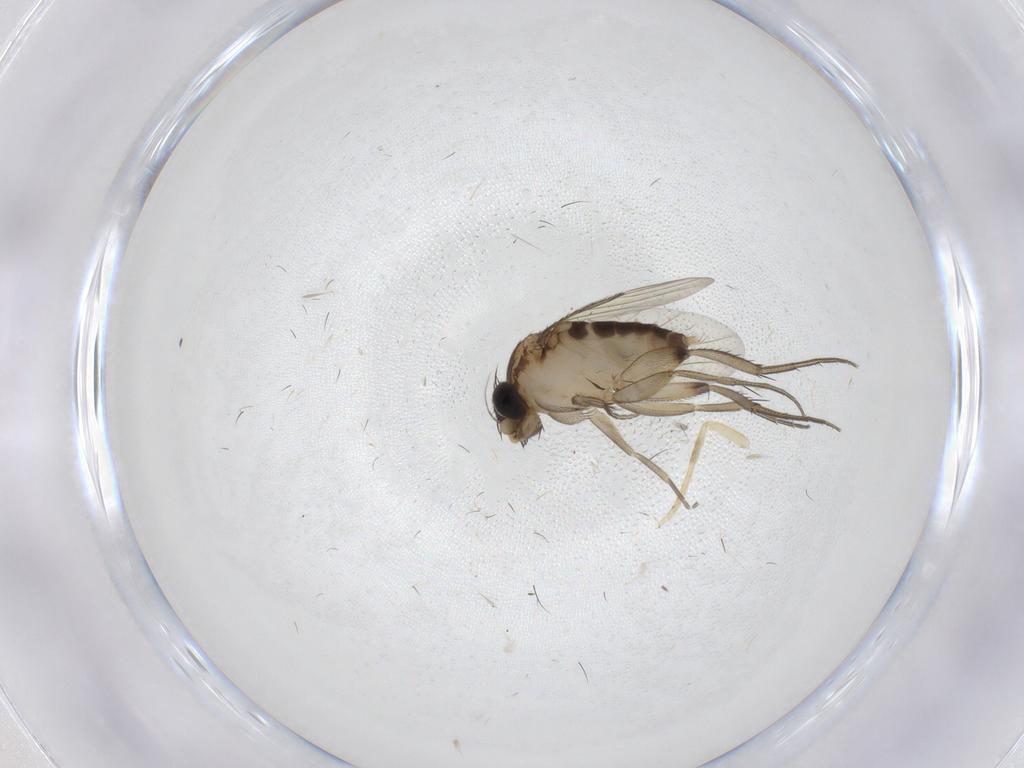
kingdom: Animalia
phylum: Arthropoda
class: Insecta
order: Diptera
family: Phoridae
